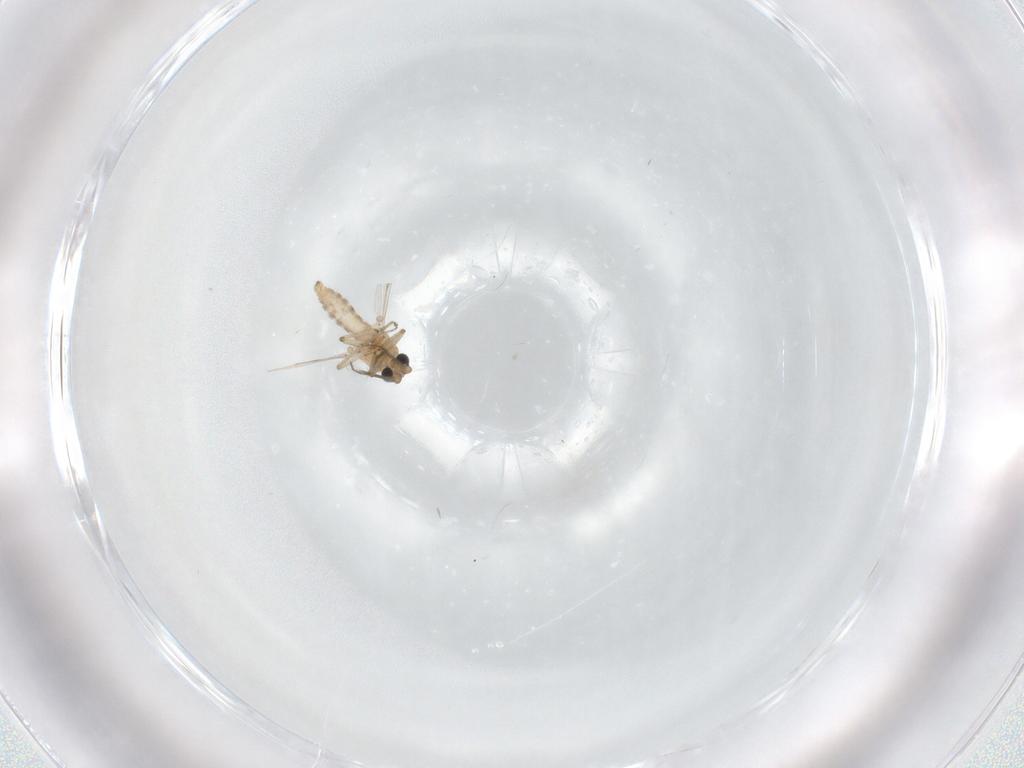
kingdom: Animalia
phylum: Arthropoda
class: Insecta
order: Diptera
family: Ceratopogonidae
